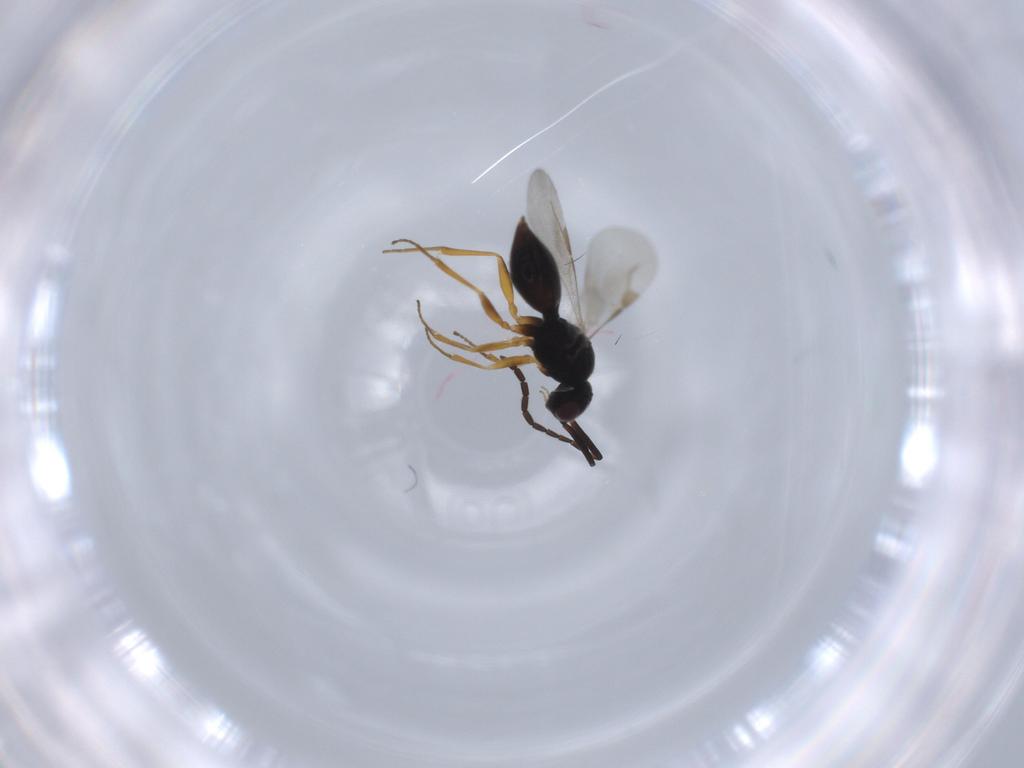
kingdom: Animalia
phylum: Arthropoda
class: Insecta
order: Hymenoptera
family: Megaspilidae
